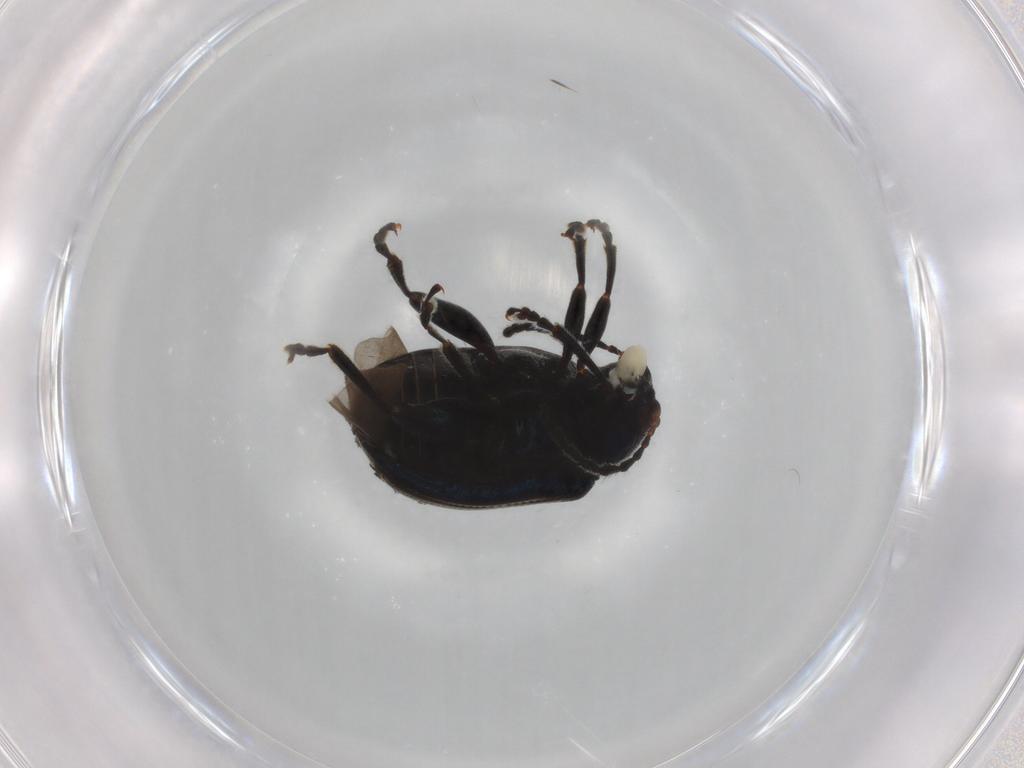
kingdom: Animalia
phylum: Arthropoda
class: Insecta
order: Coleoptera
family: Chrysomelidae
